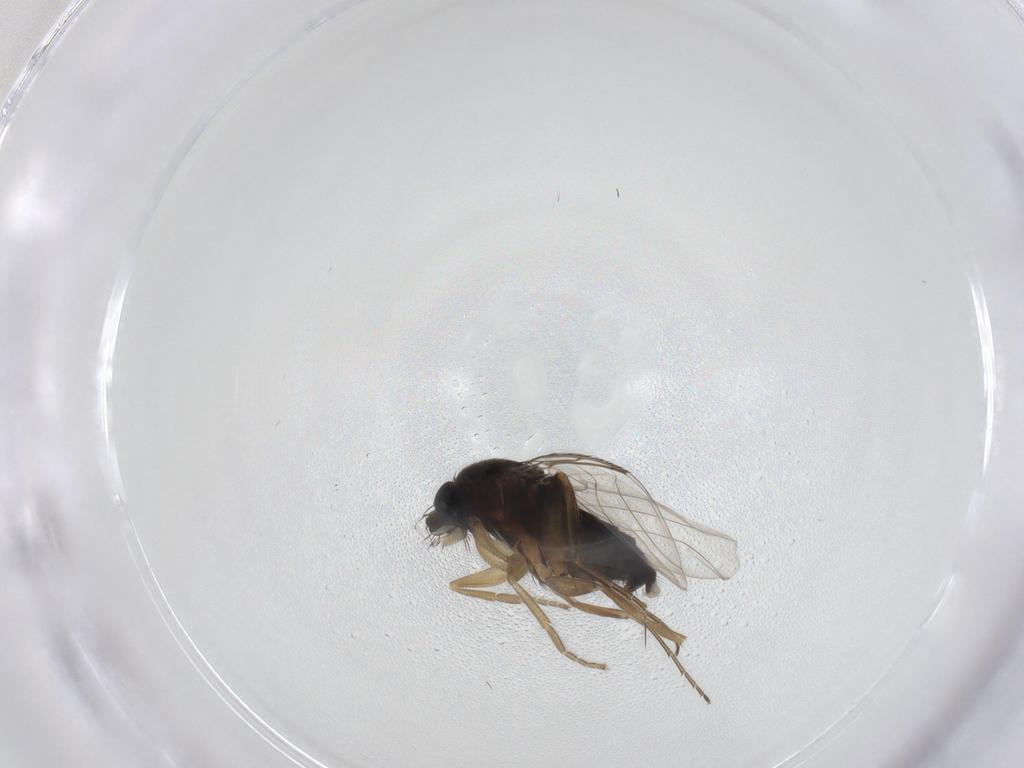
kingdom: Animalia
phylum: Arthropoda
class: Insecta
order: Diptera
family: Phoridae
